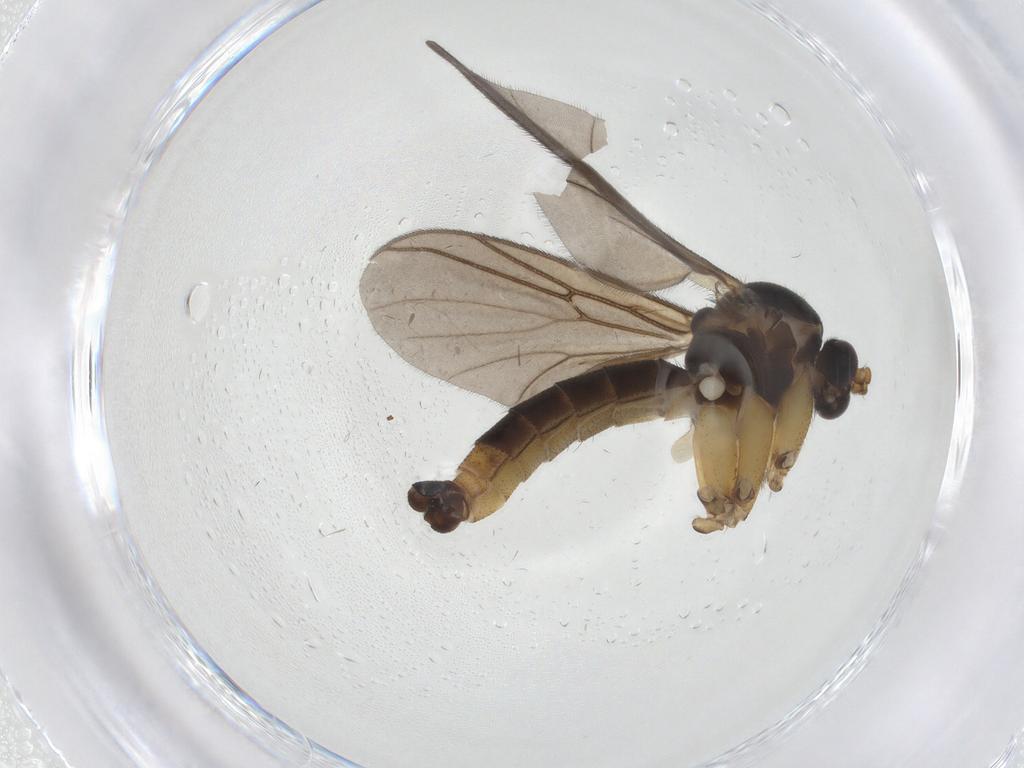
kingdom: Animalia
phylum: Arthropoda
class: Insecta
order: Diptera
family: Mycetophilidae
